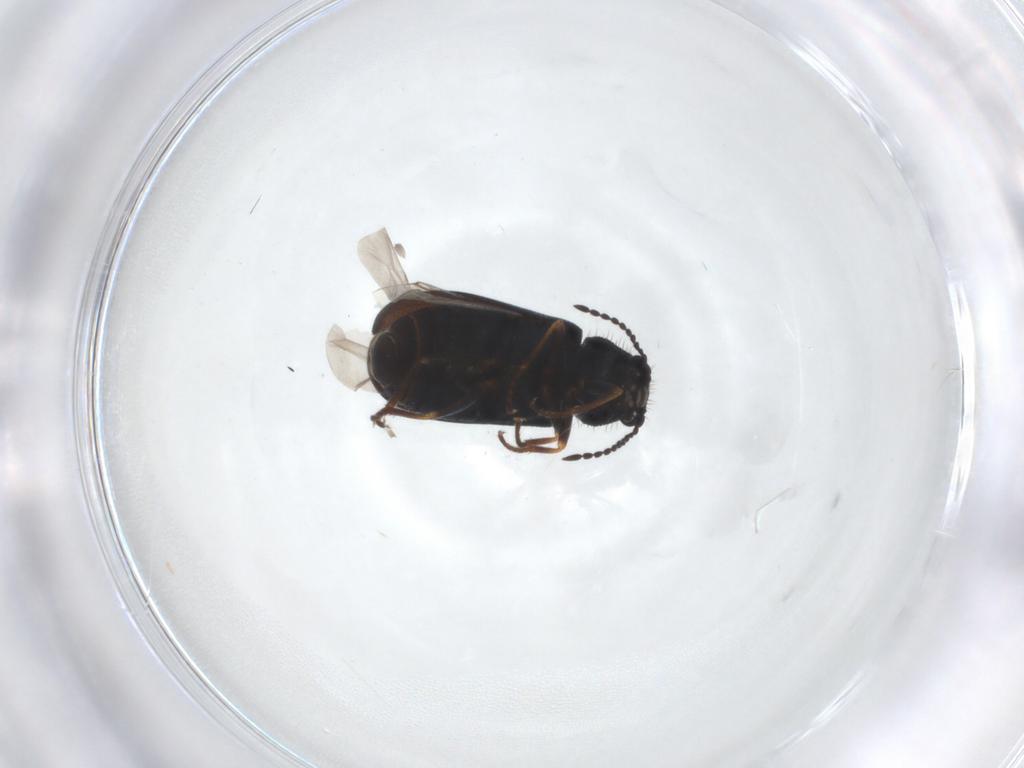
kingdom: Animalia
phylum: Arthropoda
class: Insecta
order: Coleoptera
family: Melyridae
